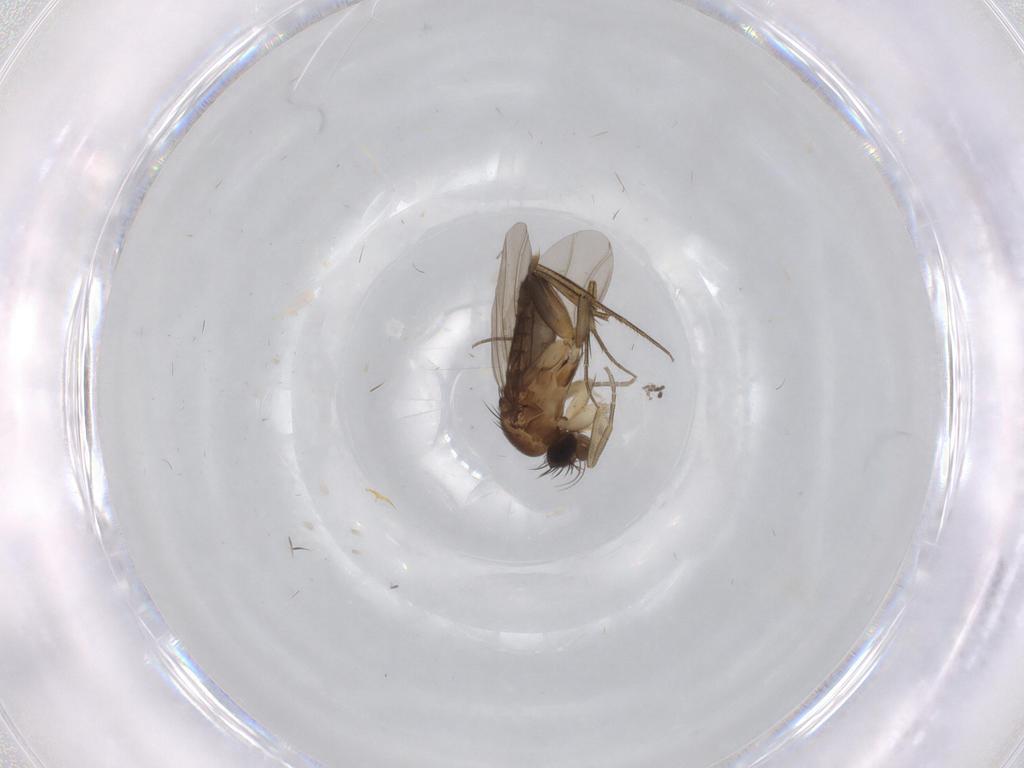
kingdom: Animalia
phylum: Arthropoda
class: Insecta
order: Diptera
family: Phoridae
